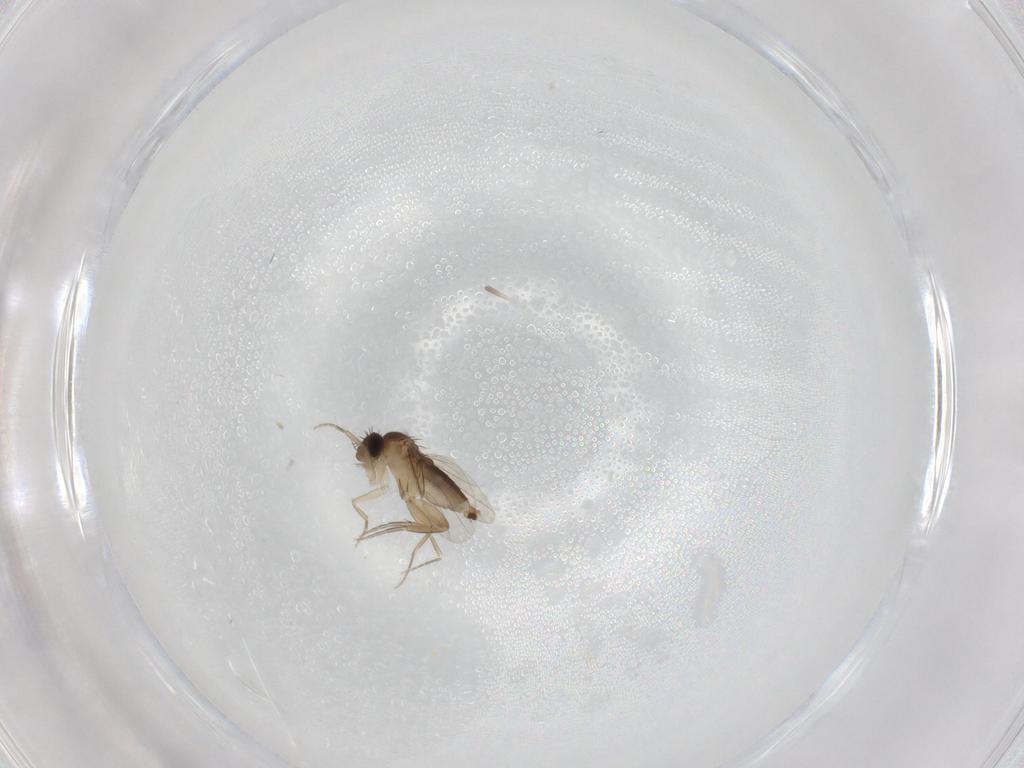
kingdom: Animalia
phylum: Arthropoda
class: Insecta
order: Diptera
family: Phoridae
